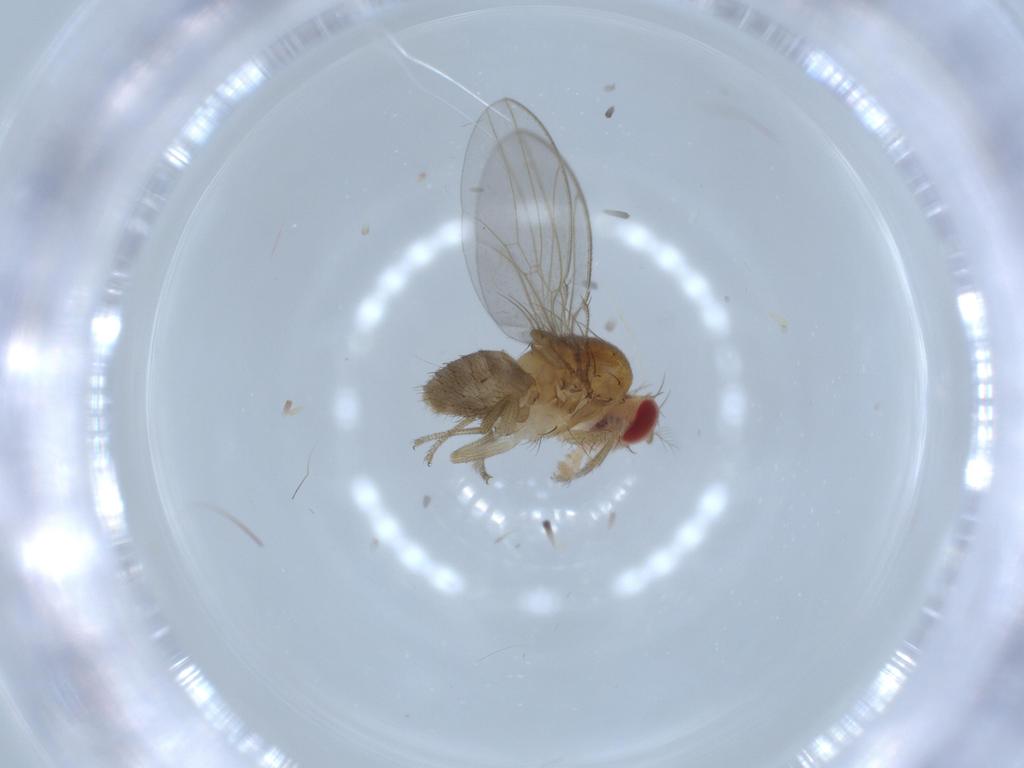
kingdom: Animalia
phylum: Arthropoda
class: Insecta
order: Diptera
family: Drosophilidae
